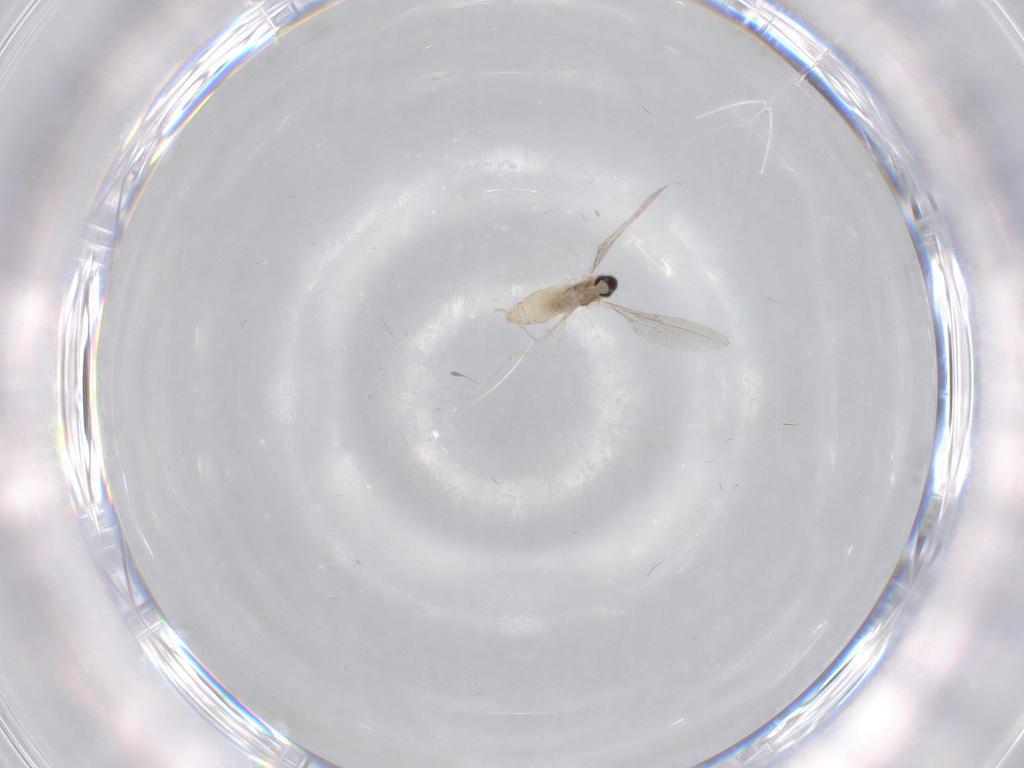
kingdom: Animalia
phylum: Arthropoda
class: Insecta
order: Diptera
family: Cecidomyiidae
